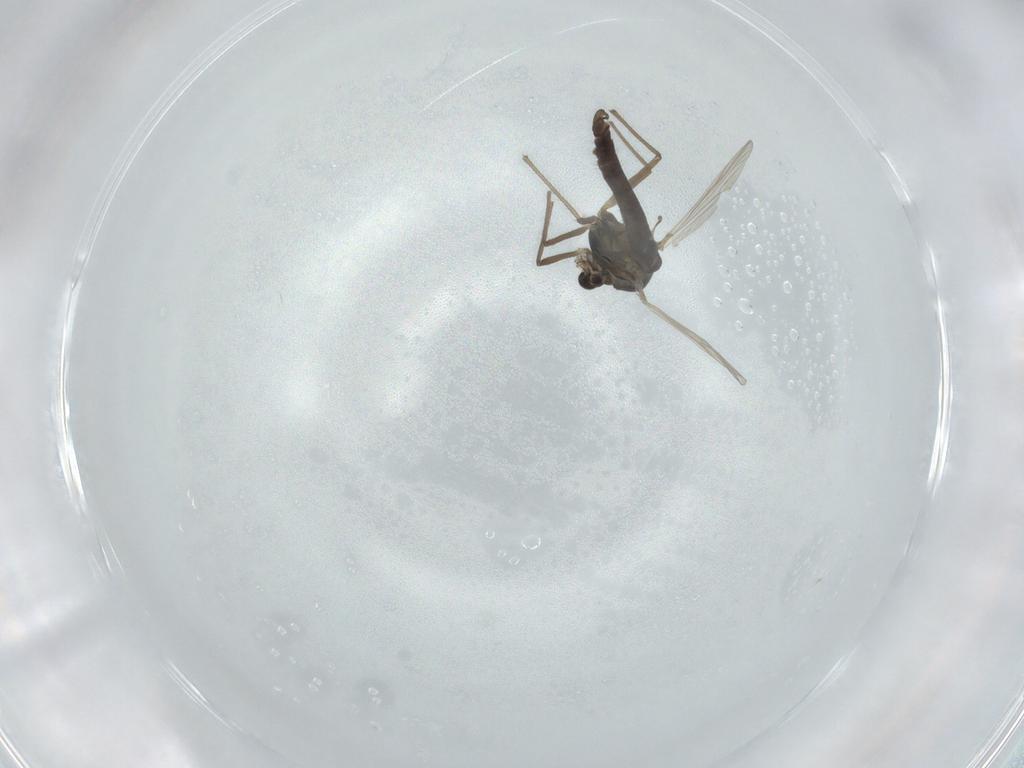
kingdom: Animalia
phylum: Arthropoda
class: Insecta
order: Diptera
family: Chironomidae
